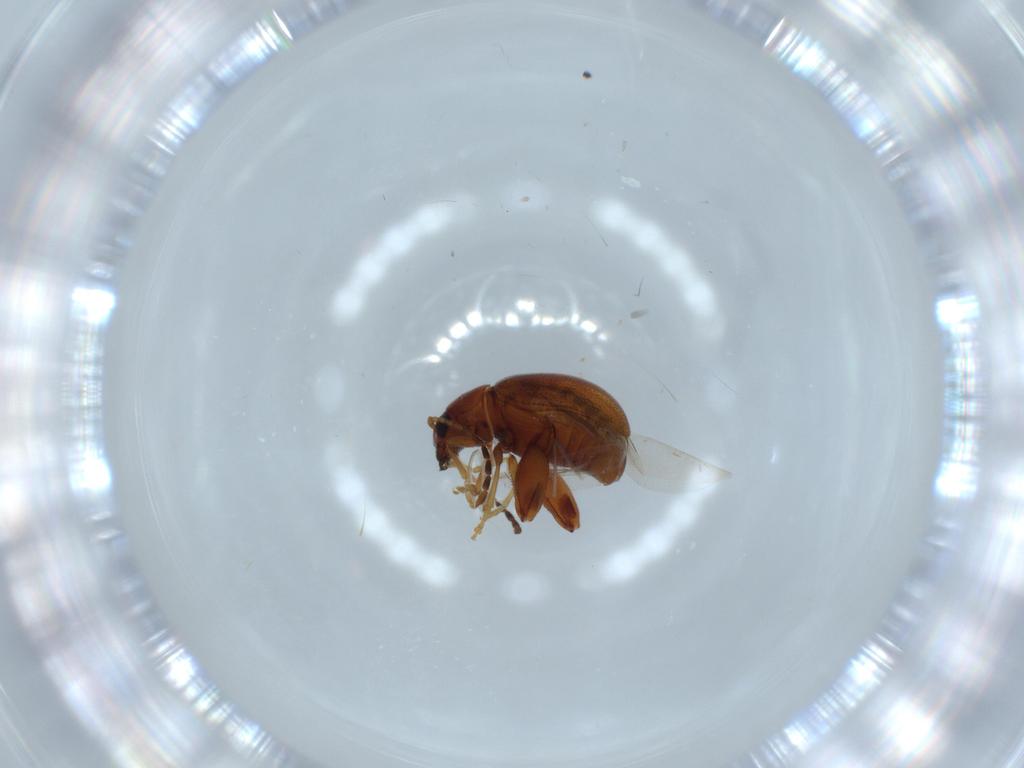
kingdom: Animalia
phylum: Arthropoda
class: Insecta
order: Coleoptera
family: Chrysomelidae
